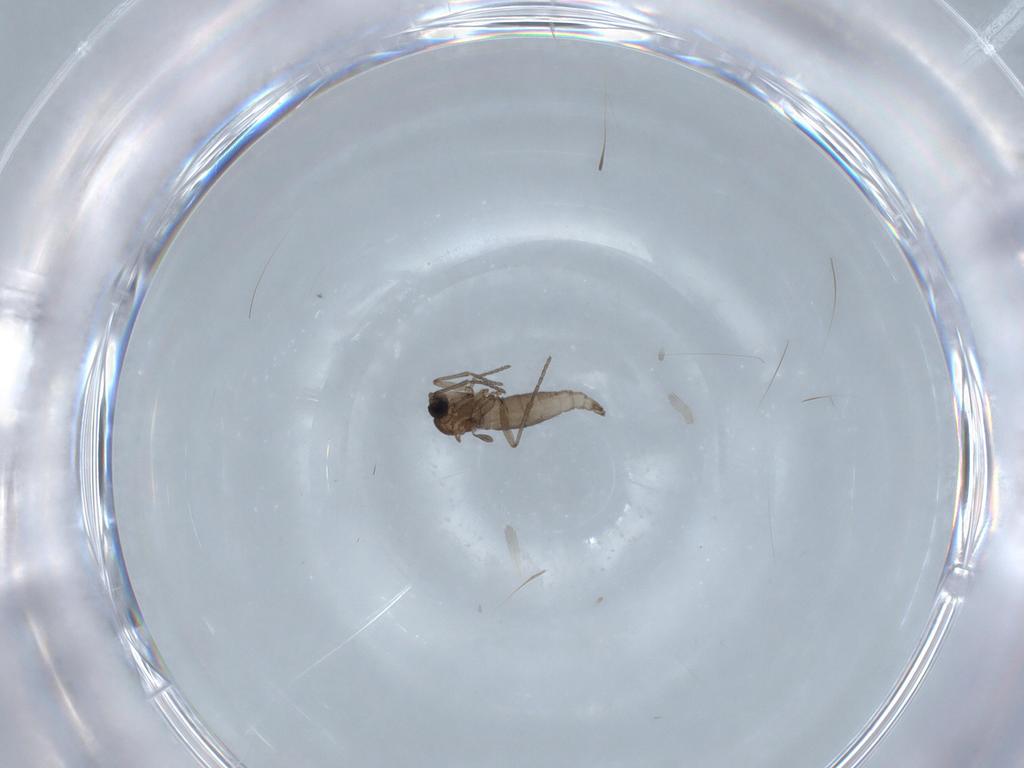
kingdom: Animalia
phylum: Arthropoda
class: Insecta
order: Diptera
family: Sciaridae
